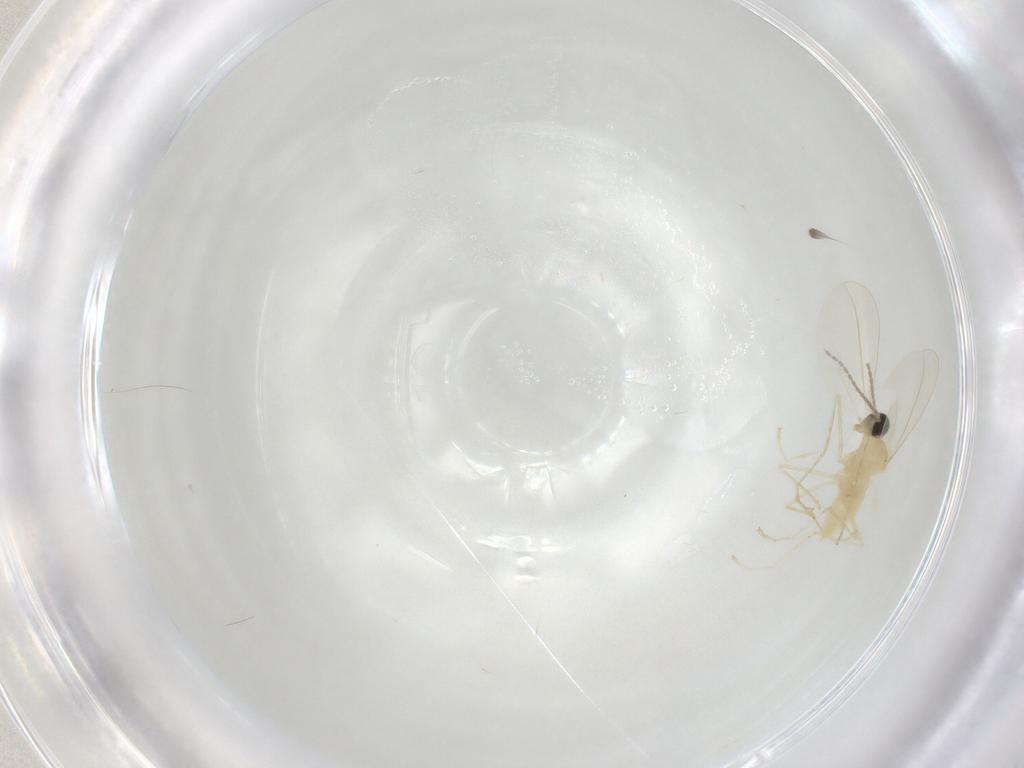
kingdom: Animalia
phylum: Arthropoda
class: Insecta
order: Diptera
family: Cecidomyiidae
